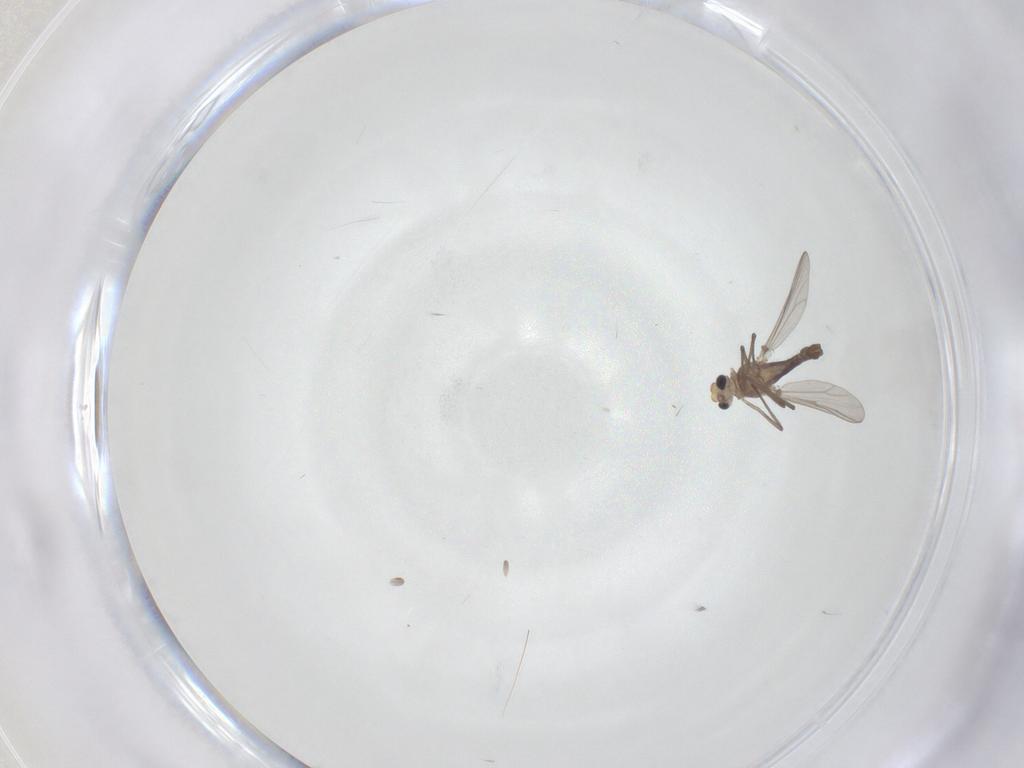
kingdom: Animalia
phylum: Arthropoda
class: Insecta
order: Diptera
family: Chironomidae
